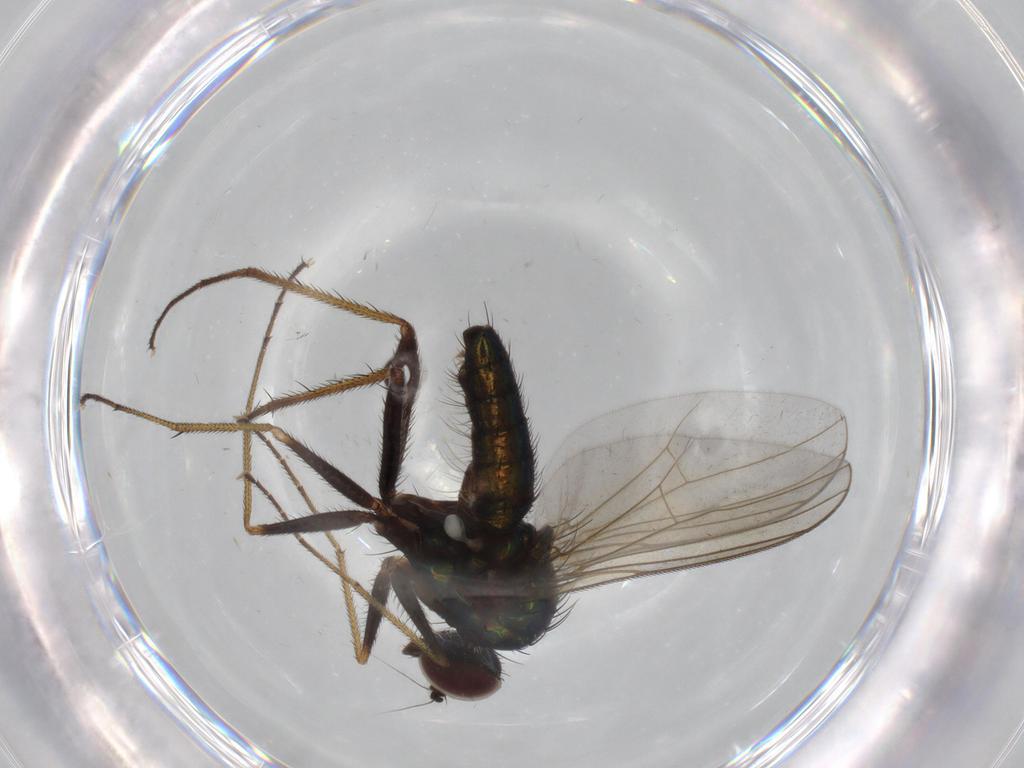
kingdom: Animalia
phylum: Arthropoda
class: Insecta
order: Diptera
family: Dolichopodidae
